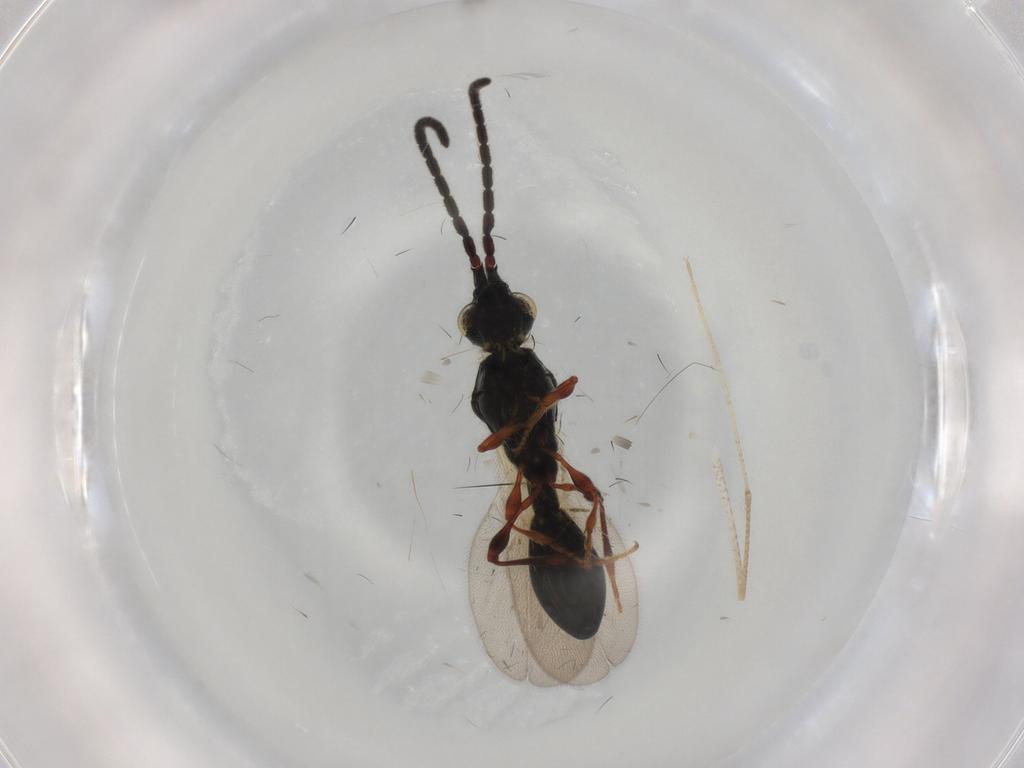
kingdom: Animalia
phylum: Arthropoda
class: Insecta
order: Hymenoptera
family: Diapriidae
